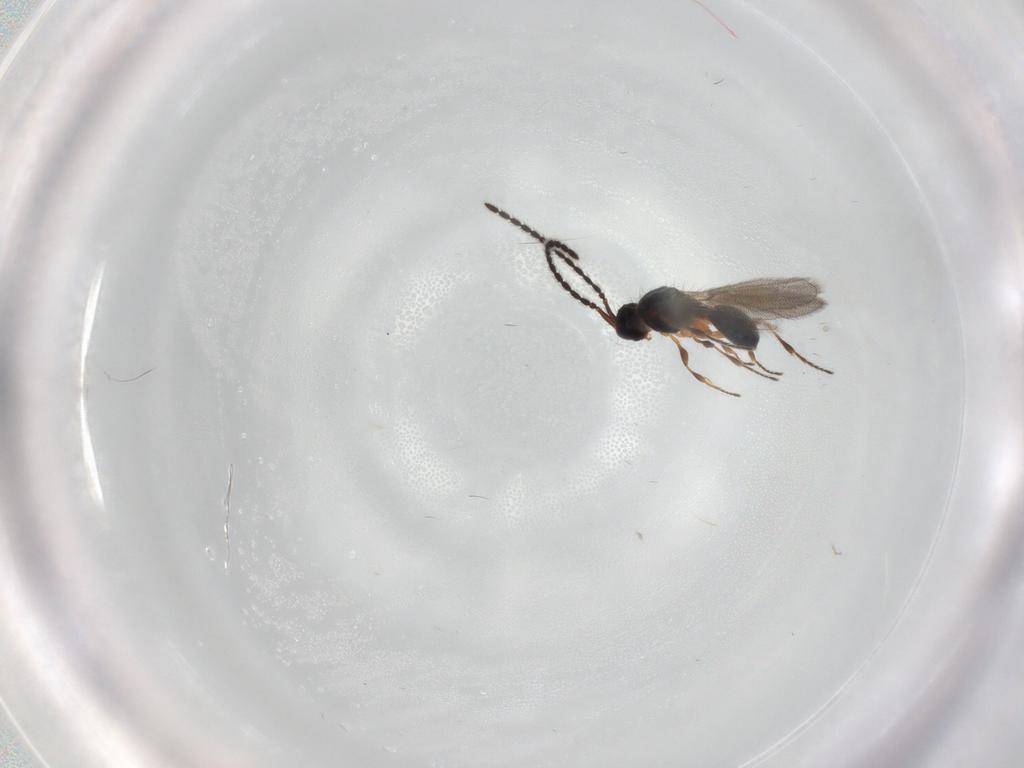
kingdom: Animalia
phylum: Arthropoda
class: Insecta
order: Hymenoptera
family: Diapriidae
